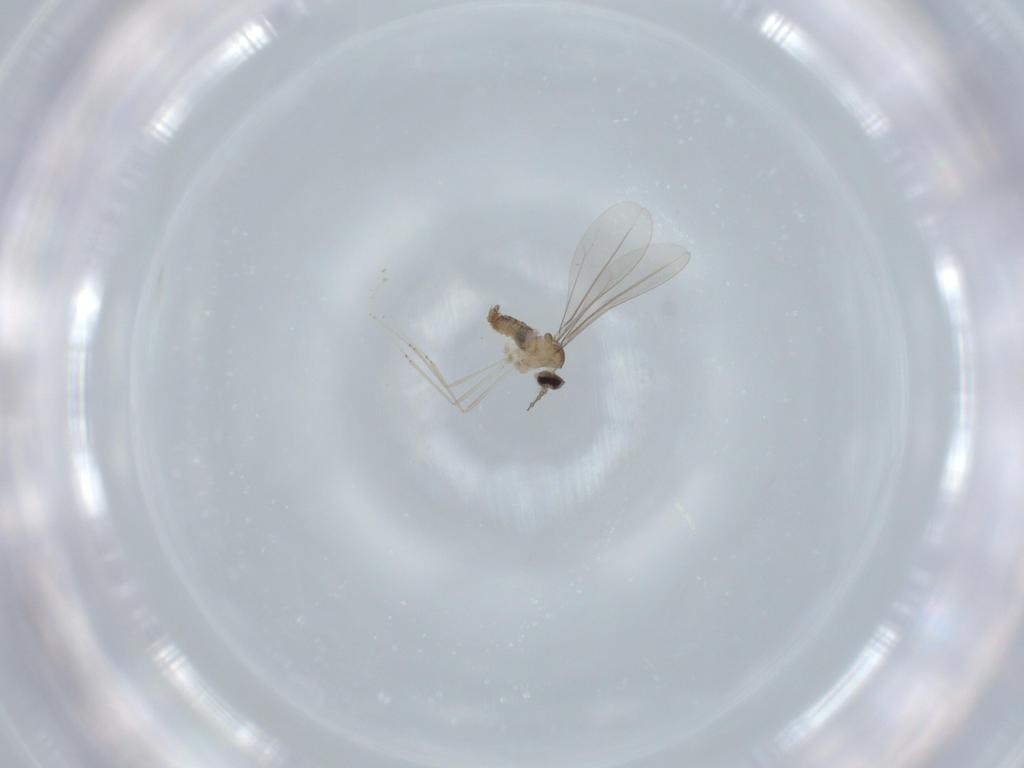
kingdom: Animalia
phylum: Arthropoda
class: Insecta
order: Diptera
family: Cecidomyiidae
